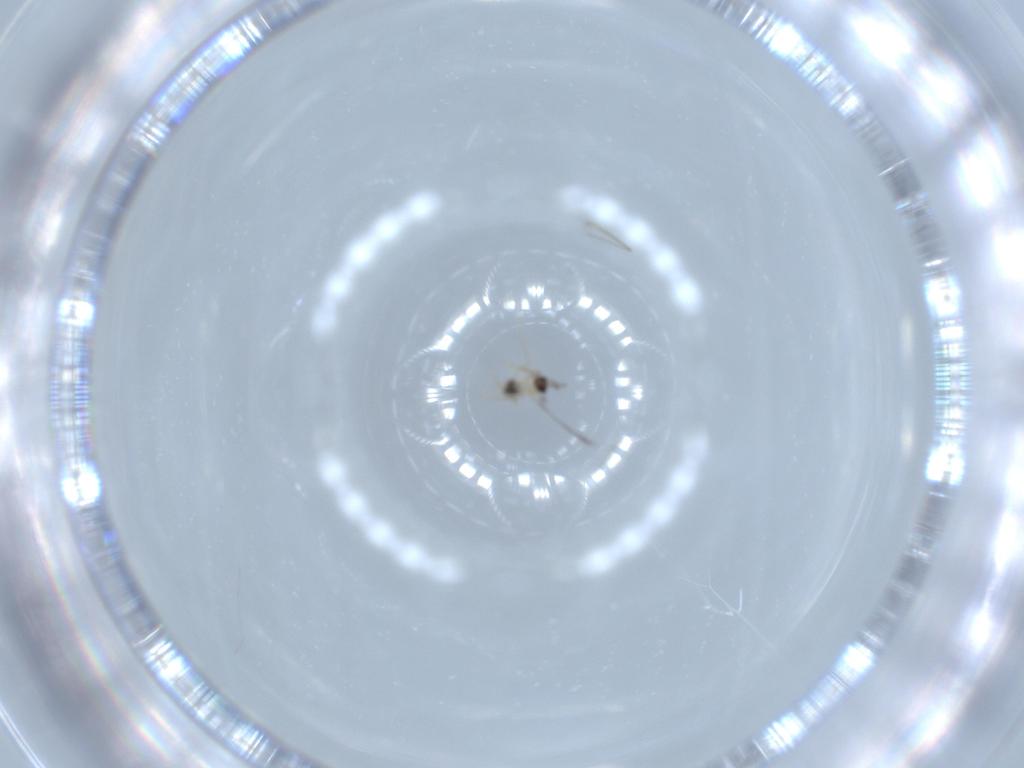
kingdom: Animalia
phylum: Arthropoda
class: Insecta
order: Hymenoptera
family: Mymaridae
